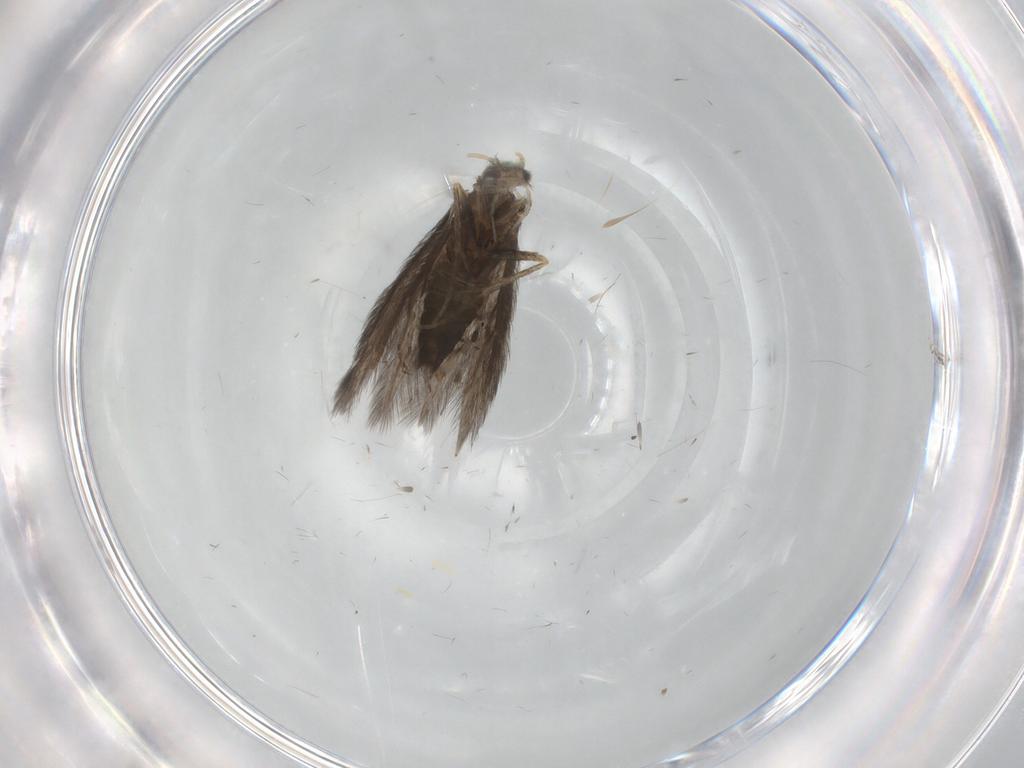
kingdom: Animalia
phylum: Arthropoda
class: Insecta
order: Trichoptera
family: Hydroptilidae
